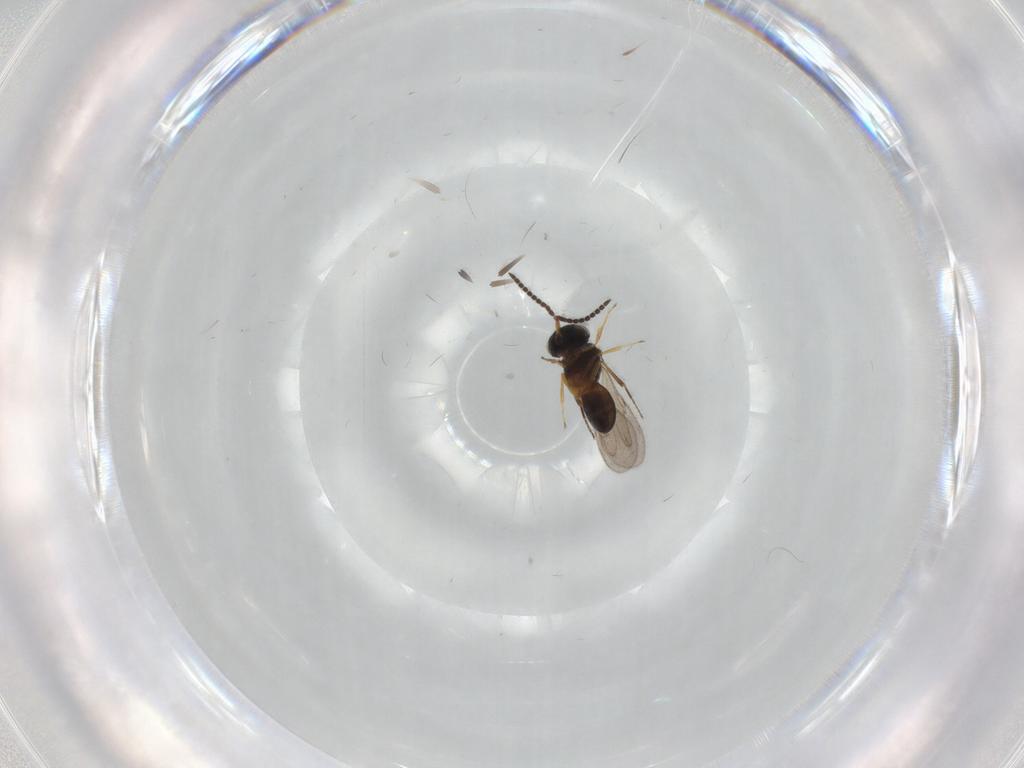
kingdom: Animalia
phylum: Arthropoda
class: Insecta
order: Hymenoptera
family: Scelionidae
